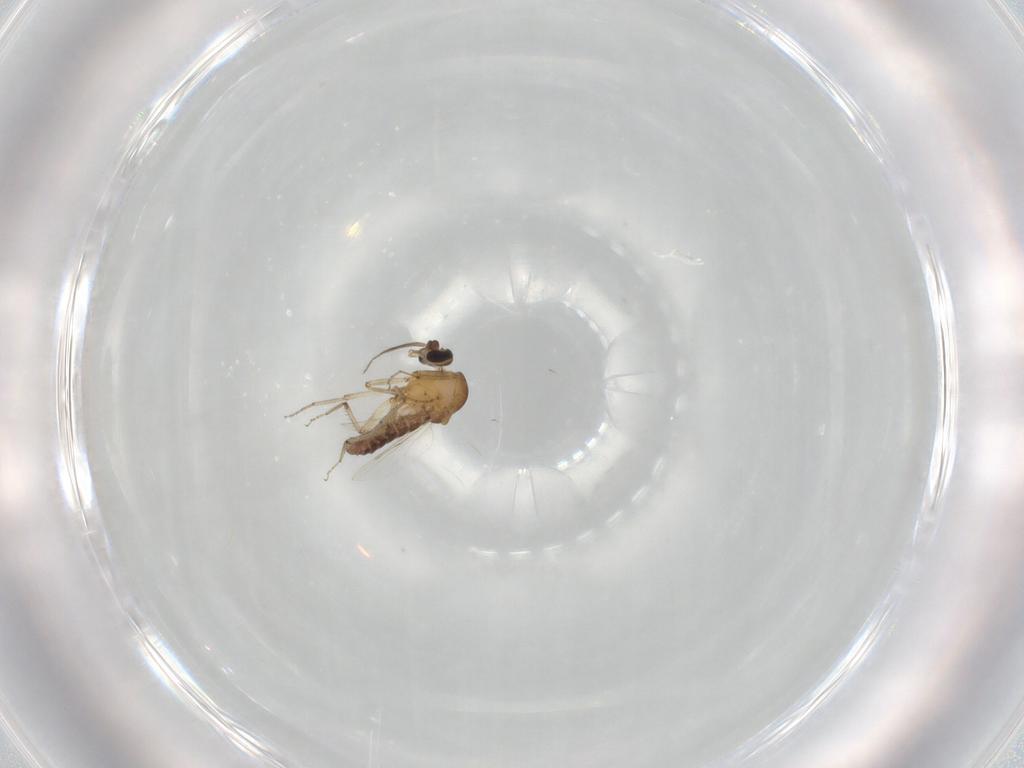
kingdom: Animalia
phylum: Arthropoda
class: Insecta
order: Diptera
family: Ceratopogonidae
